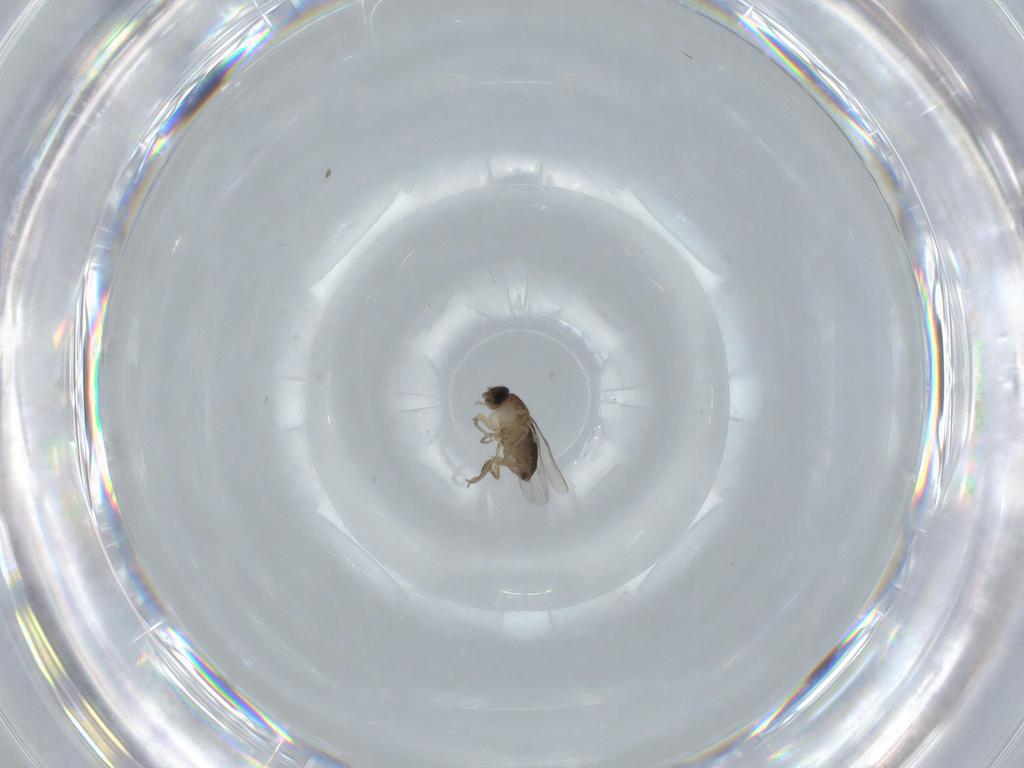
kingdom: Animalia
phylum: Arthropoda
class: Insecta
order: Diptera
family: Phoridae
